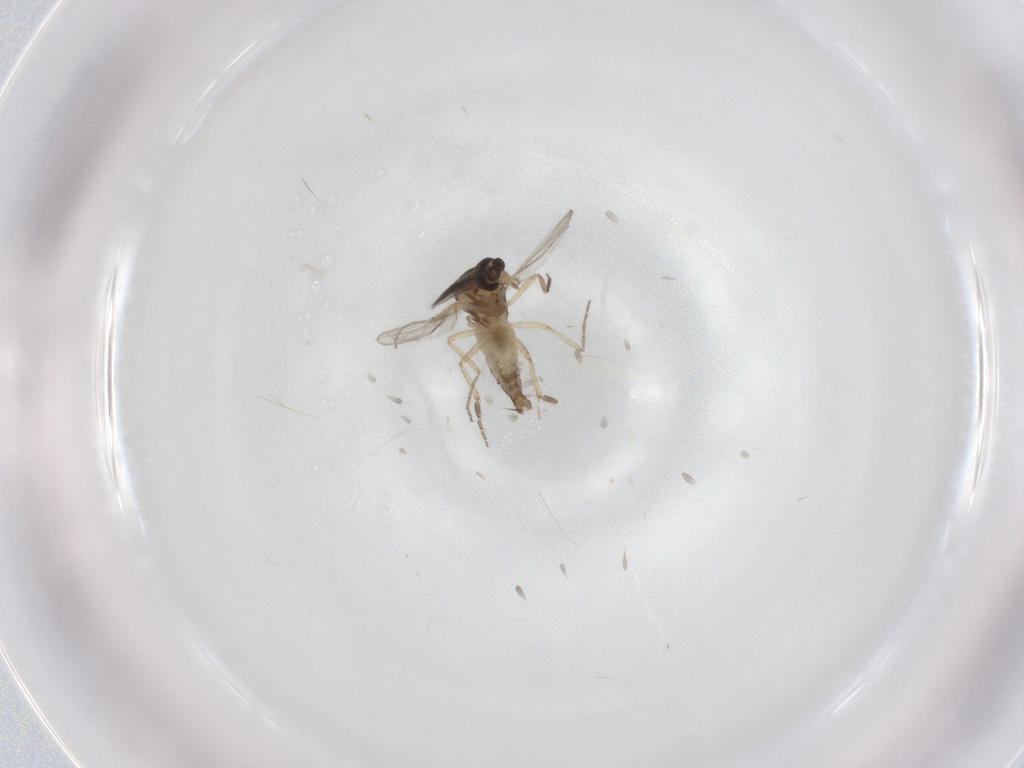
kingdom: Animalia
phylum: Arthropoda
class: Insecta
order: Diptera
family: Ceratopogonidae
